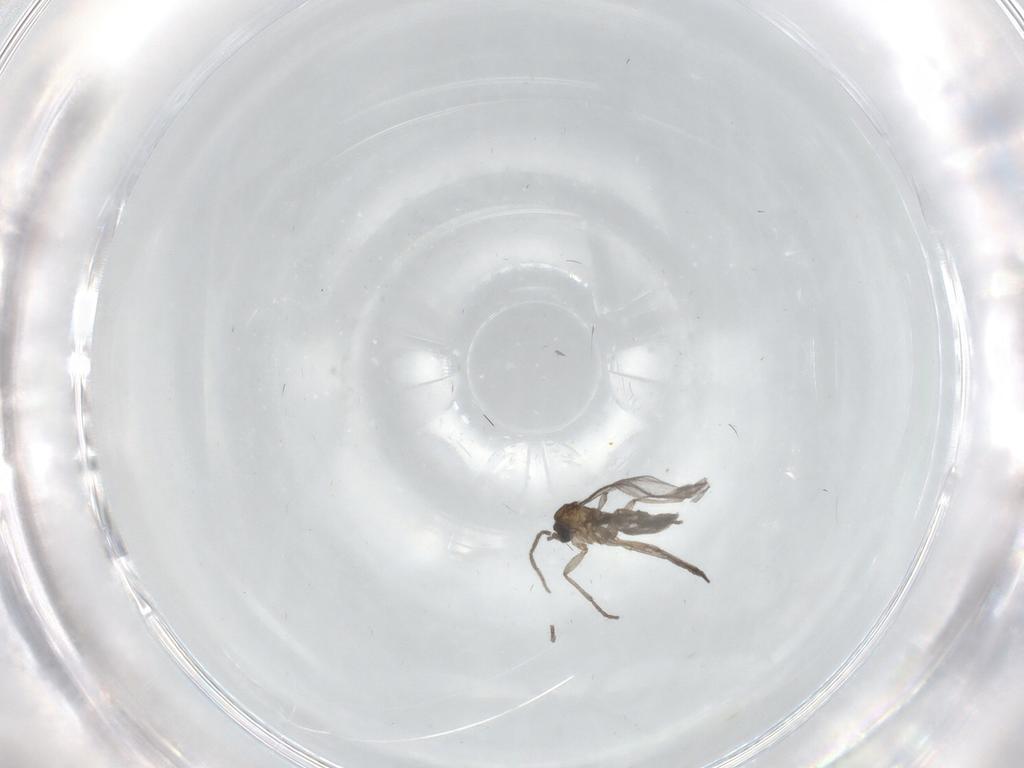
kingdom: Animalia
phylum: Arthropoda
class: Insecta
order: Diptera
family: Sciaridae
